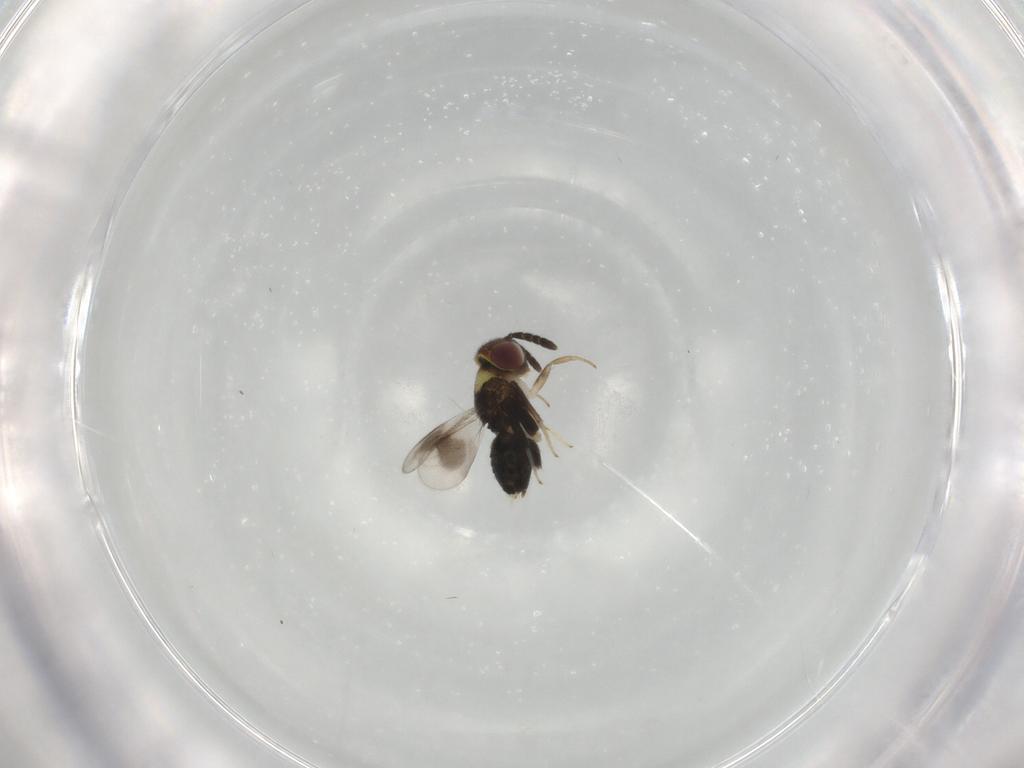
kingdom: Animalia
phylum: Arthropoda
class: Insecta
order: Hymenoptera
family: Aphelinidae
